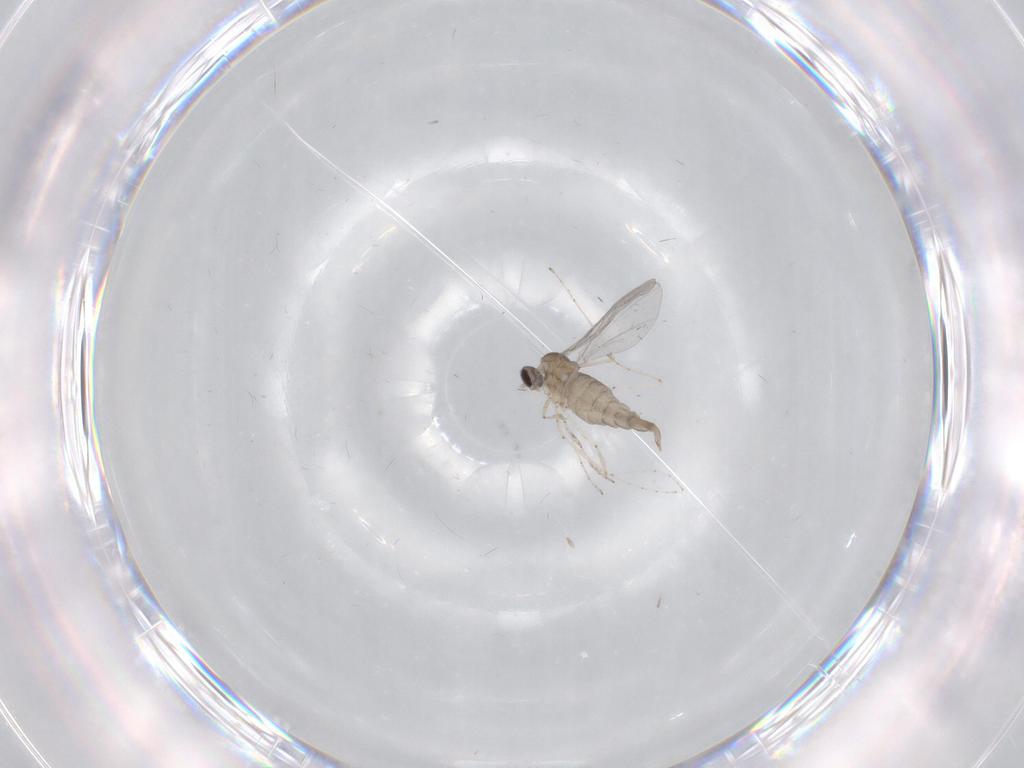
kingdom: Animalia
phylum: Arthropoda
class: Insecta
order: Diptera
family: Cecidomyiidae
